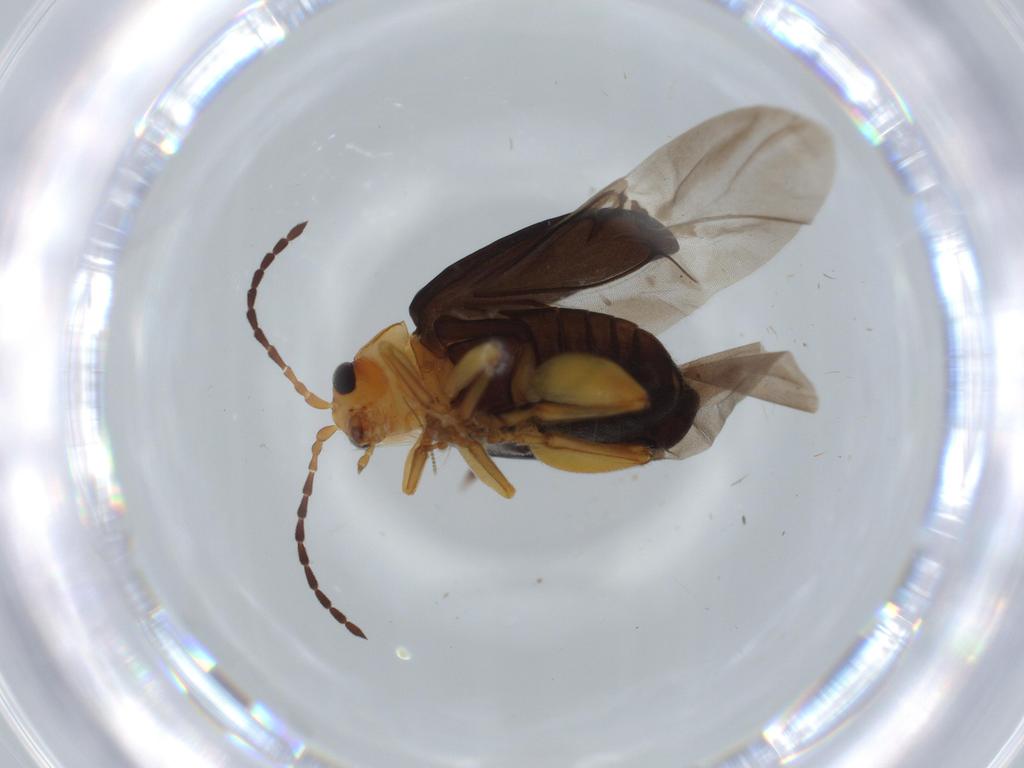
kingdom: Animalia
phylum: Arthropoda
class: Insecta
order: Coleoptera
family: Chrysomelidae
